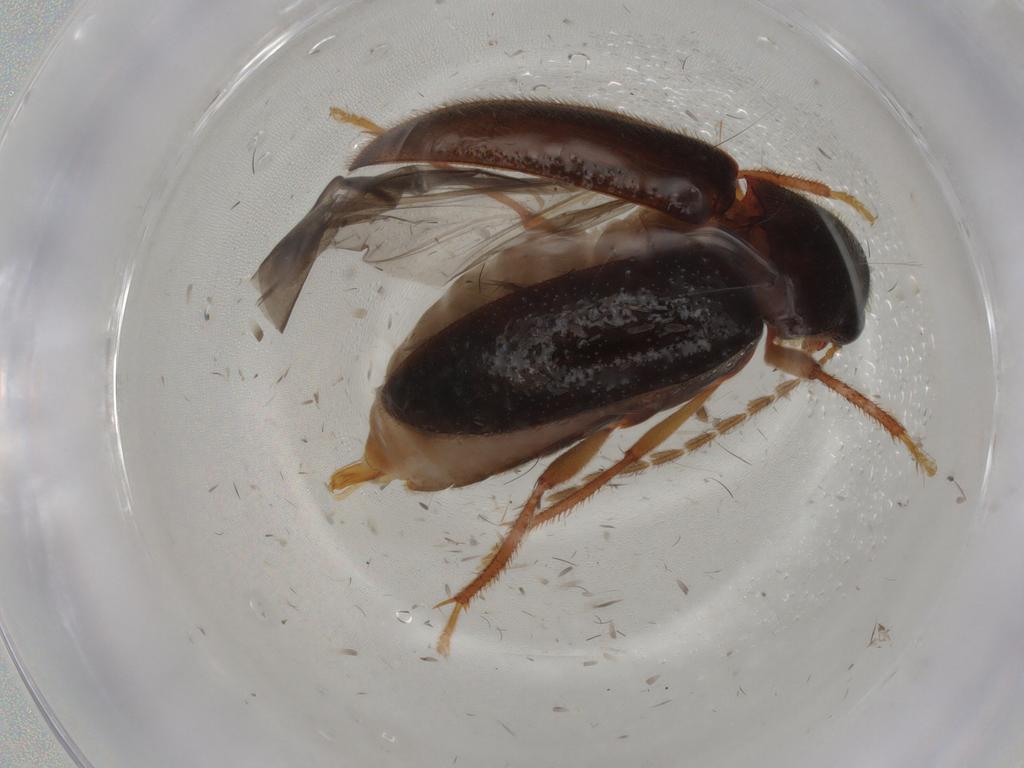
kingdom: Animalia
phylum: Arthropoda
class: Insecta
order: Coleoptera
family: Ptilodactylidae
